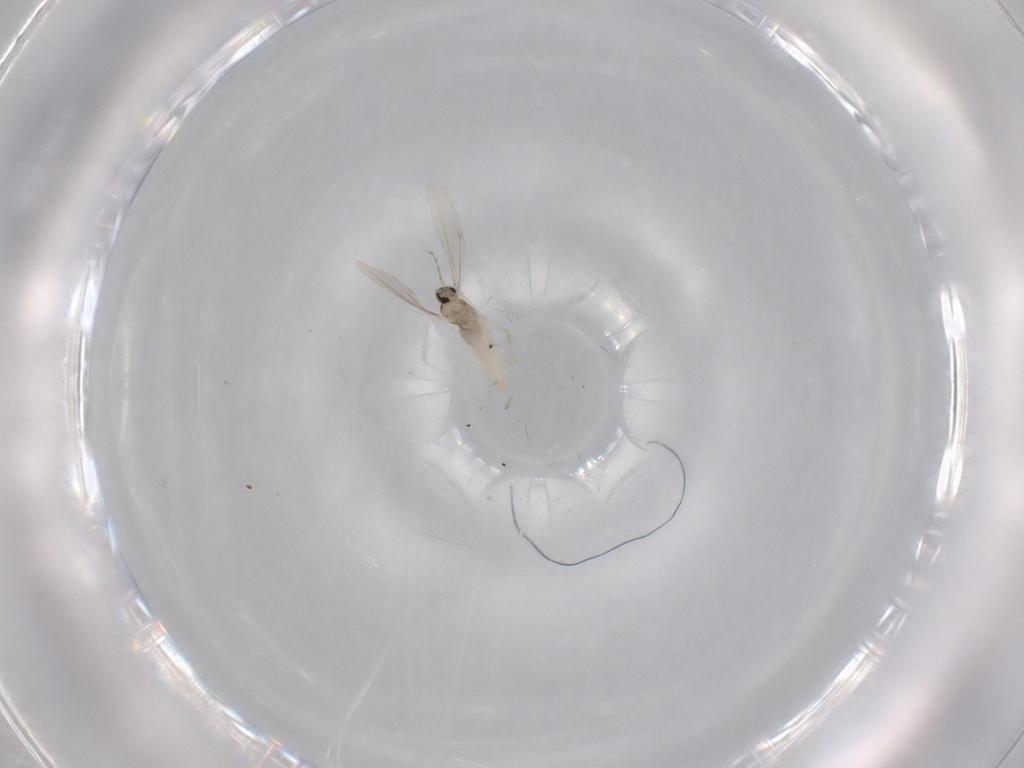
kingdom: Animalia
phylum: Arthropoda
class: Insecta
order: Diptera
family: Cecidomyiidae
